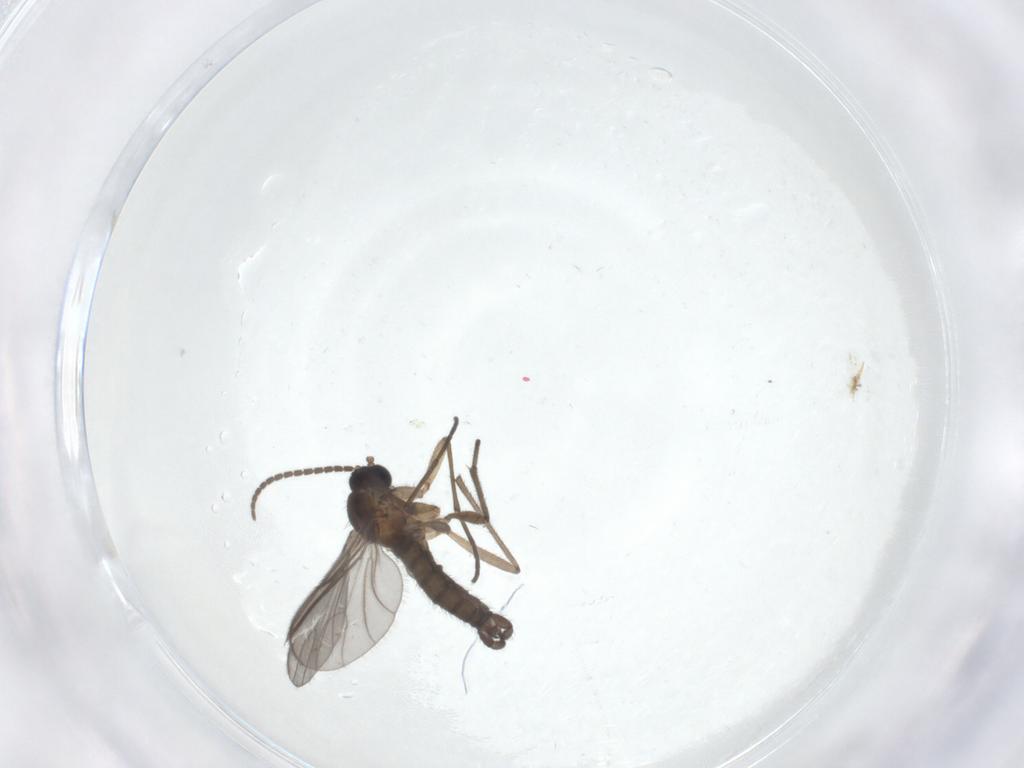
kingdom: Animalia
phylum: Arthropoda
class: Insecta
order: Diptera
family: Sciaridae
